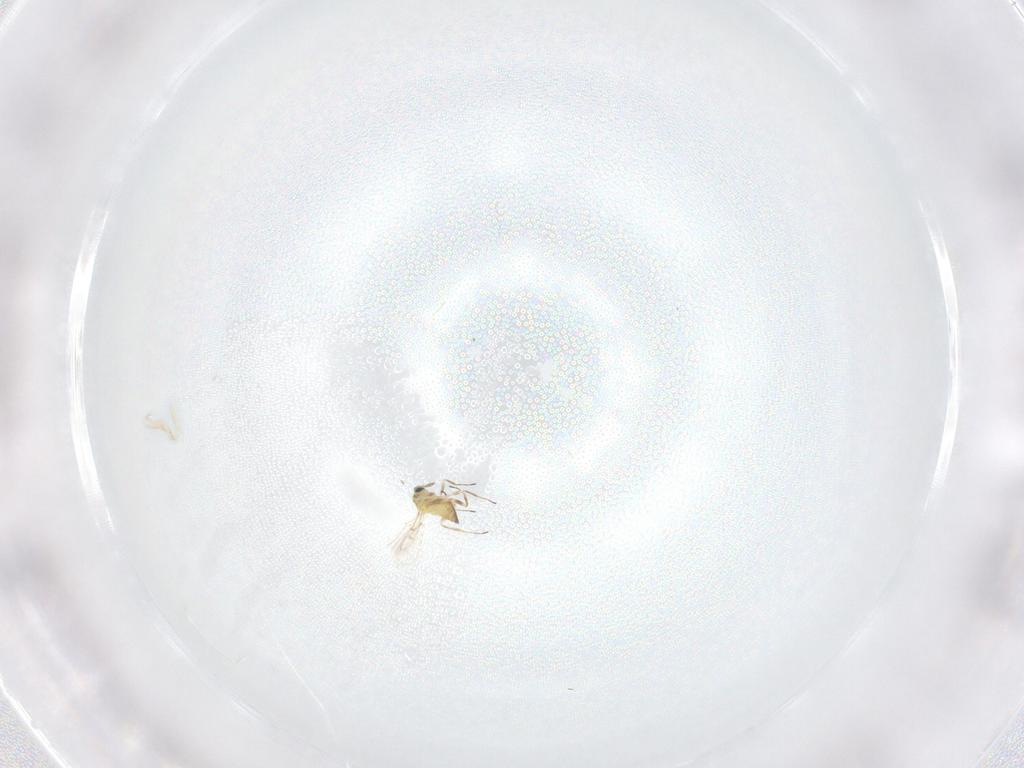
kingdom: Animalia
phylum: Arthropoda
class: Insecta
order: Hymenoptera
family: Trichogrammatidae
